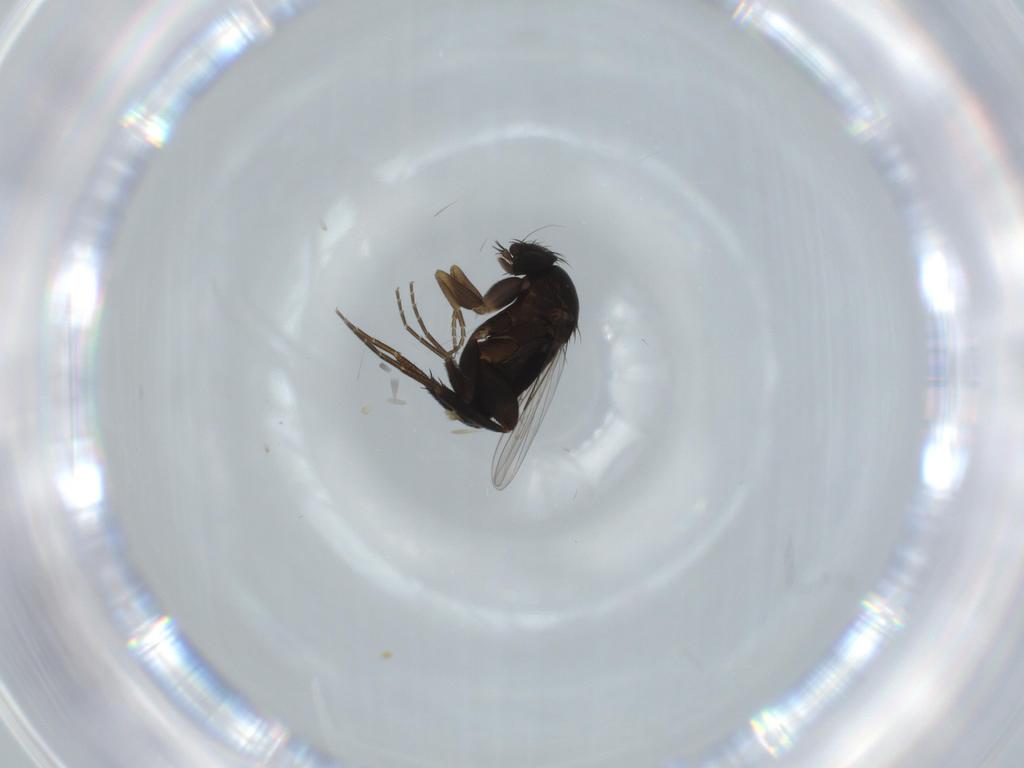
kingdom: Animalia
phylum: Arthropoda
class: Insecta
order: Diptera
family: Phoridae
